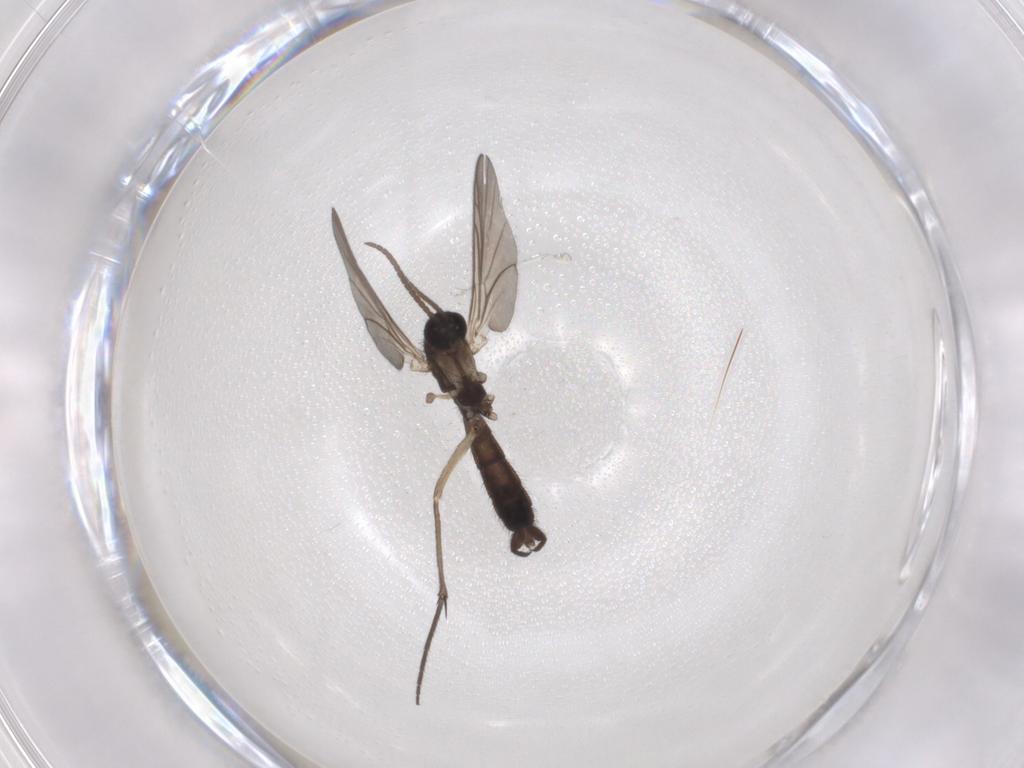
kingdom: Animalia
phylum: Arthropoda
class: Insecta
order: Diptera
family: Keroplatidae
